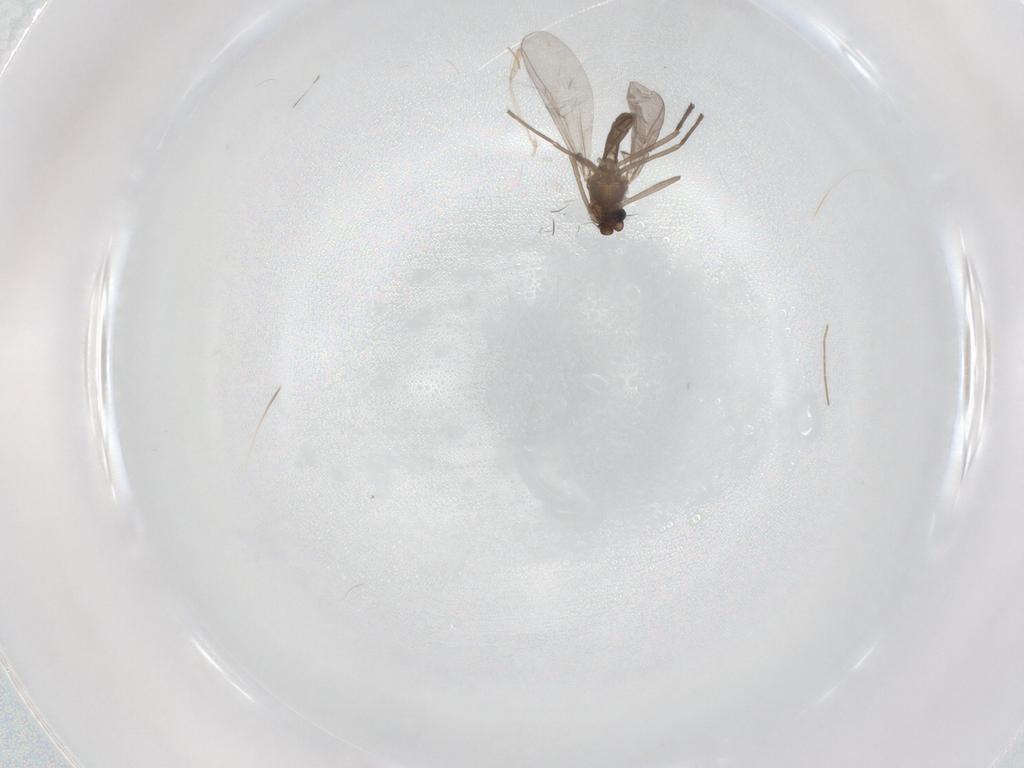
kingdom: Animalia
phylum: Arthropoda
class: Insecta
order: Diptera
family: Chironomidae
